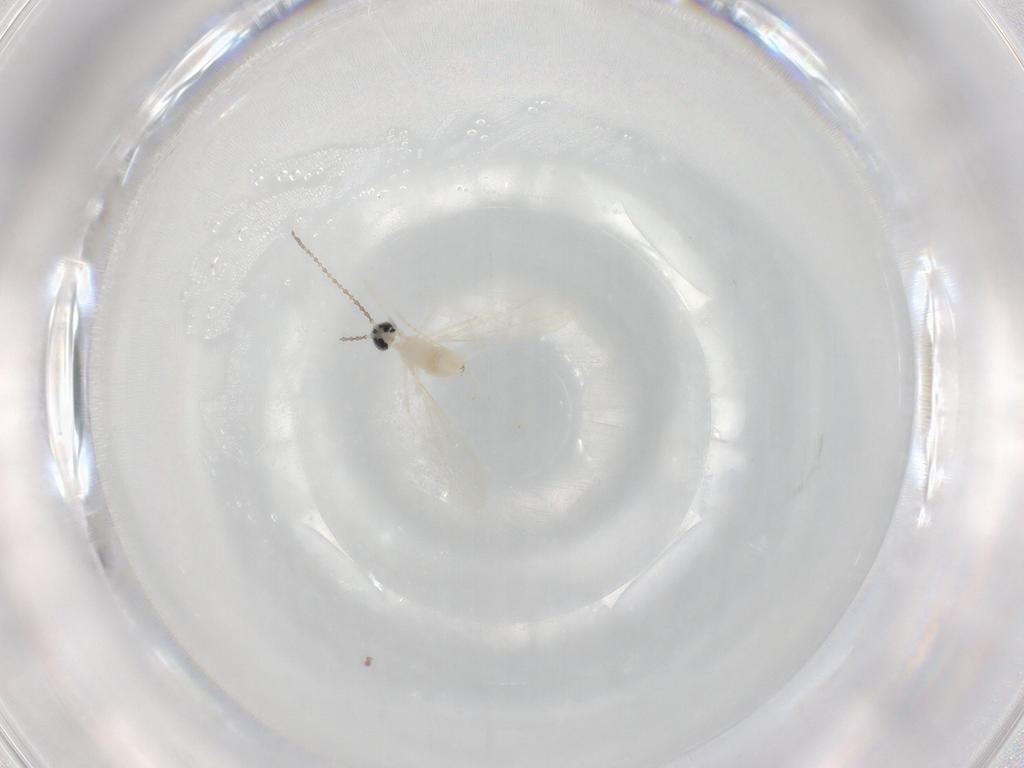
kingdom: Animalia
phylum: Arthropoda
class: Insecta
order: Diptera
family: Cecidomyiidae
